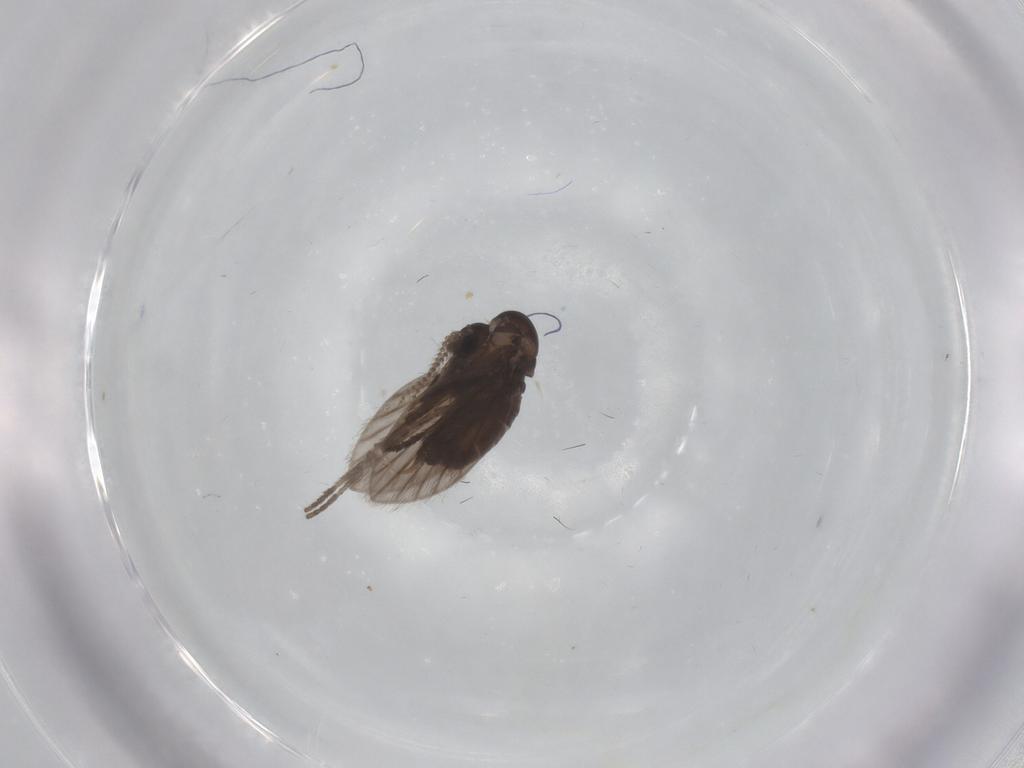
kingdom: Animalia
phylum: Arthropoda
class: Insecta
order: Diptera
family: Psychodidae
